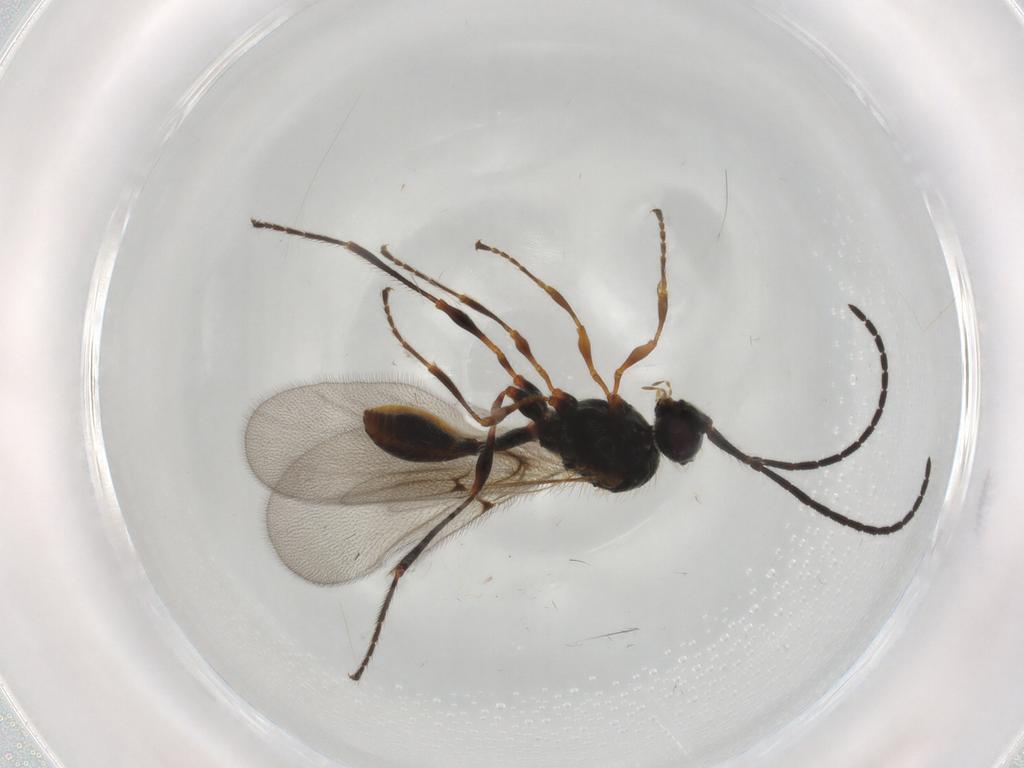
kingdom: Animalia
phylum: Arthropoda
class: Insecta
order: Hymenoptera
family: Diapriidae
